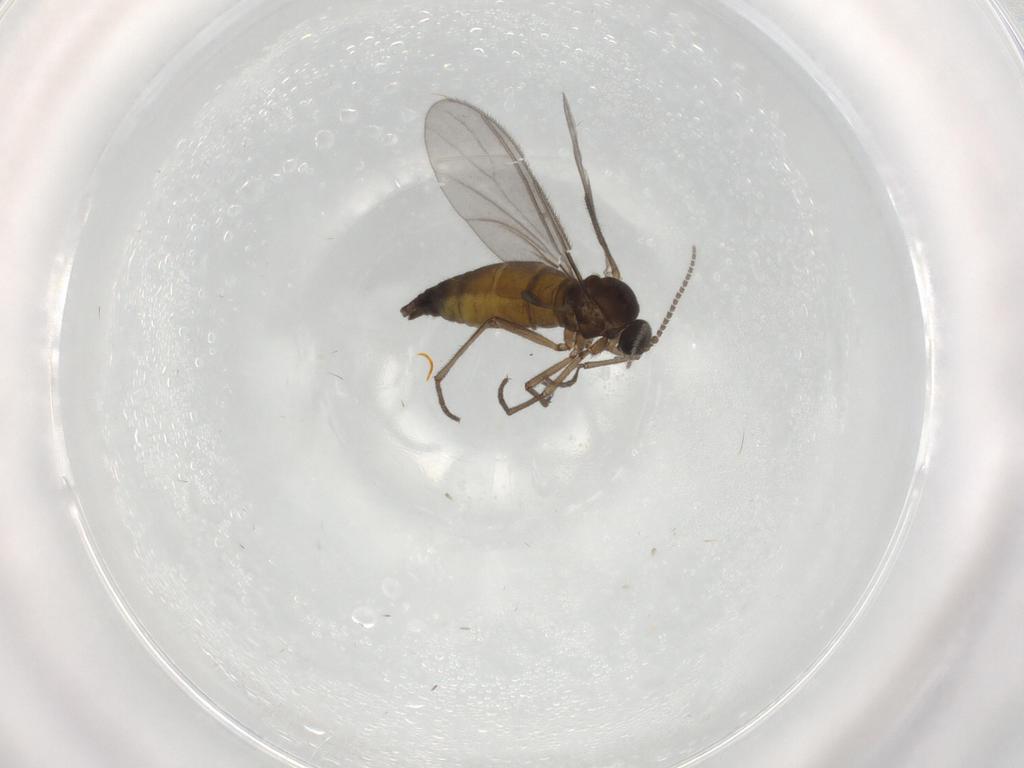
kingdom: Animalia
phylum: Arthropoda
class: Insecta
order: Diptera
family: Sciaridae
